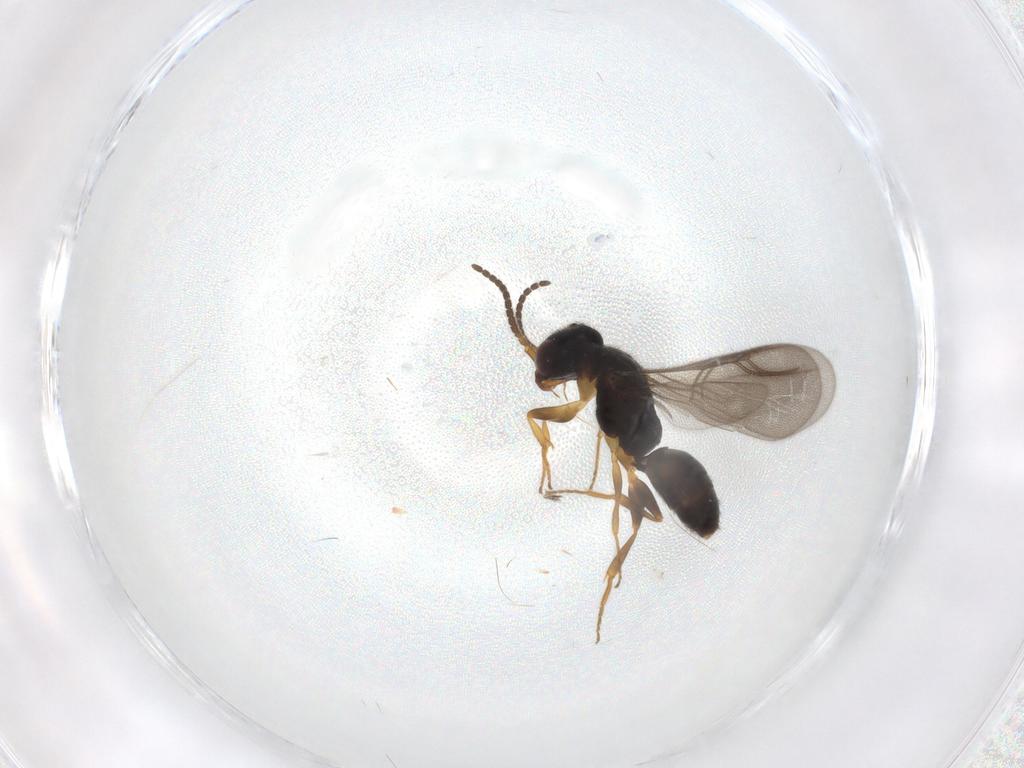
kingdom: Animalia
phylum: Arthropoda
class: Insecta
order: Hymenoptera
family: Bethylidae
